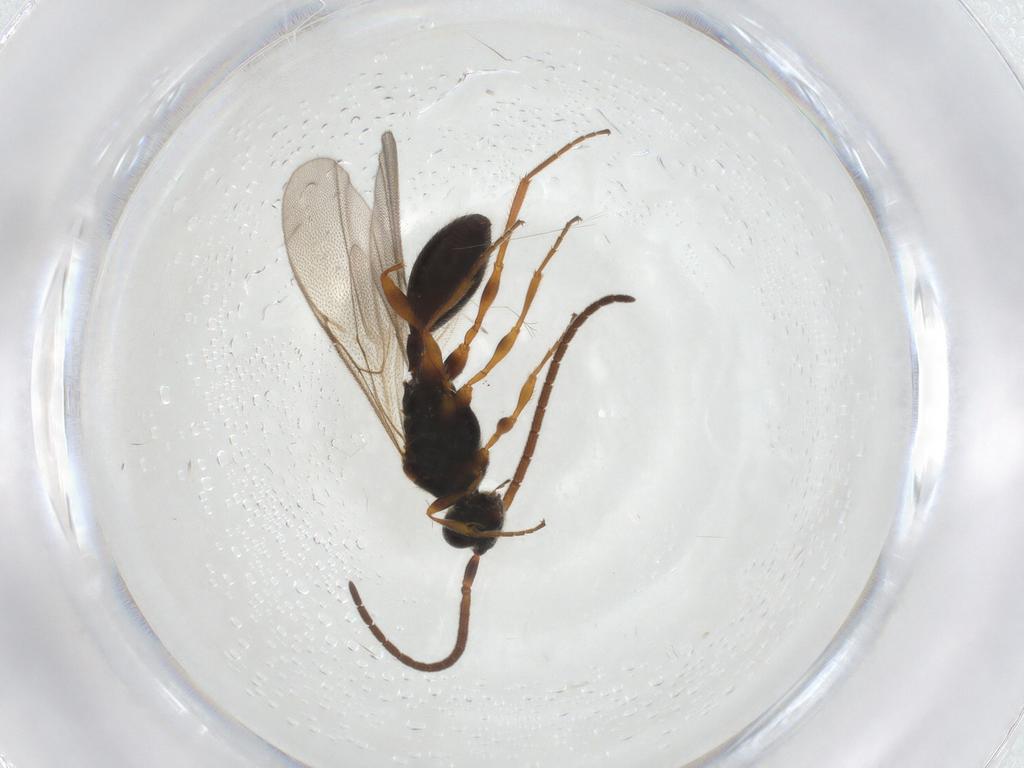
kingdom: Animalia
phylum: Arthropoda
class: Insecta
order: Hymenoptera
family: Diapriidae
